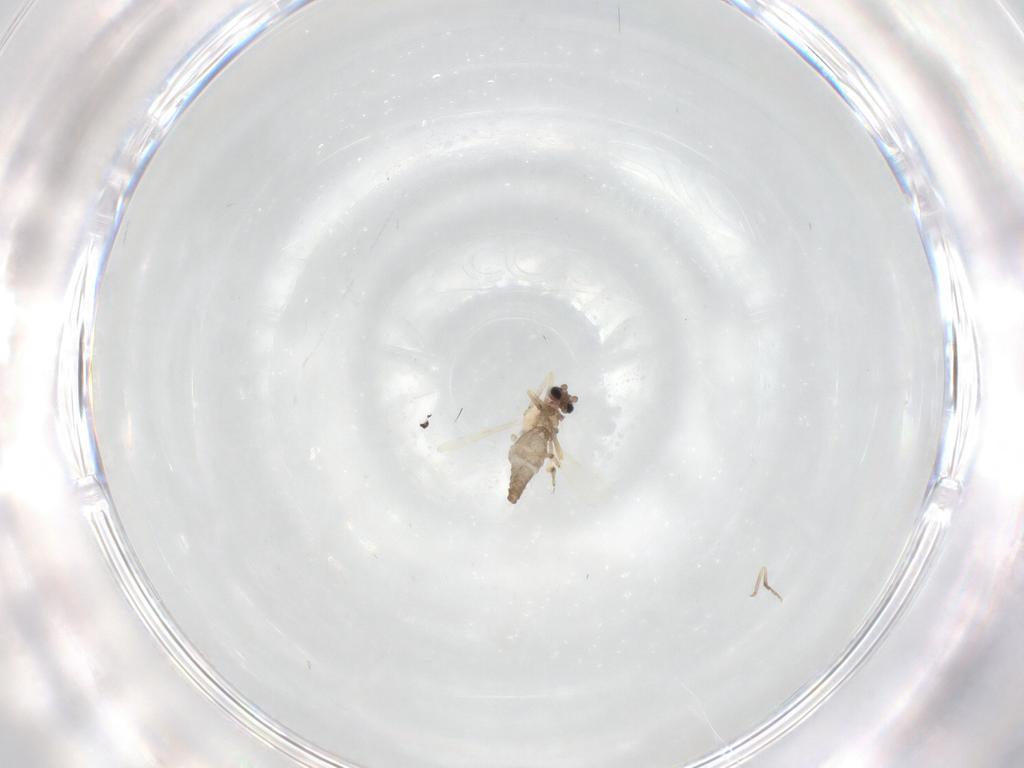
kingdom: Animalia
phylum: Arthropoda
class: Insecta
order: Diptera
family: Ceratopogonidae
